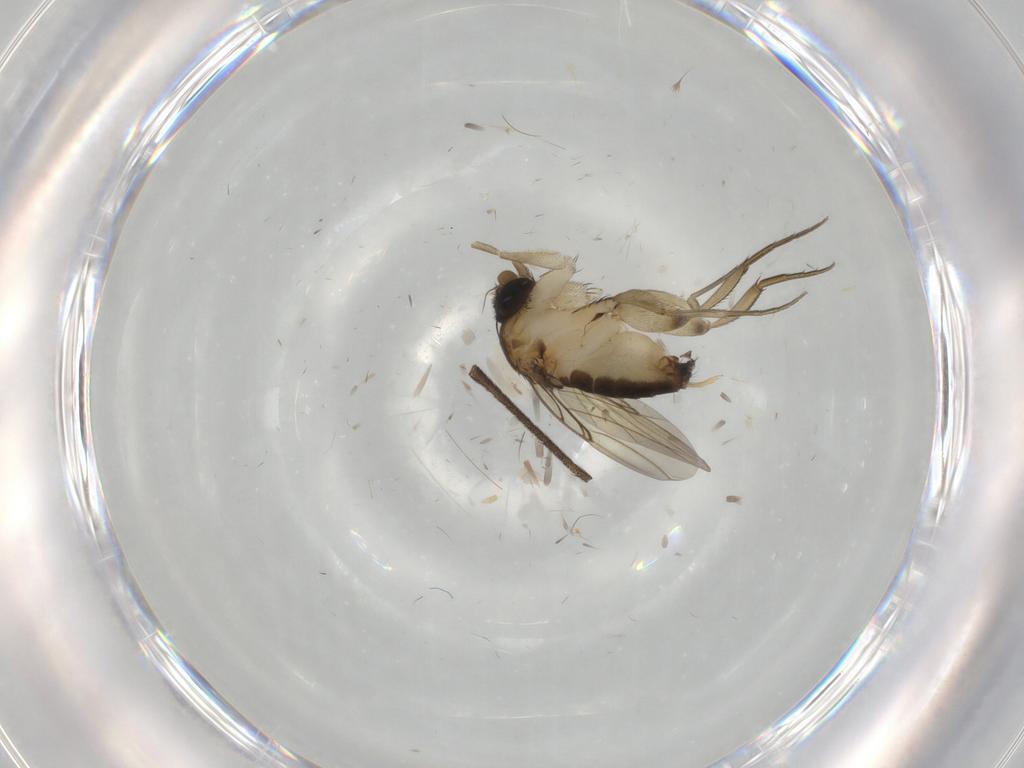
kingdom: Animalia
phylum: Arthropoda
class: Insecta
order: Diptera
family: Phoridae
